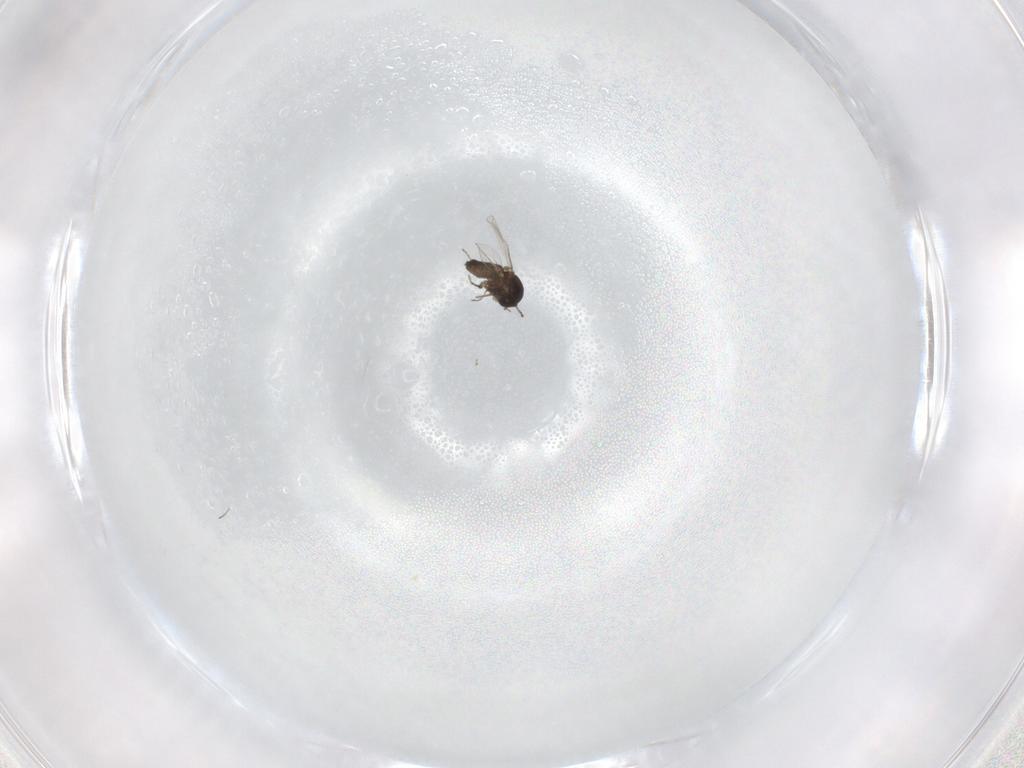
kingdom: Animalia
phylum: Arthropoda
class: Insecta
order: Diptera
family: Ceratopogonidae
